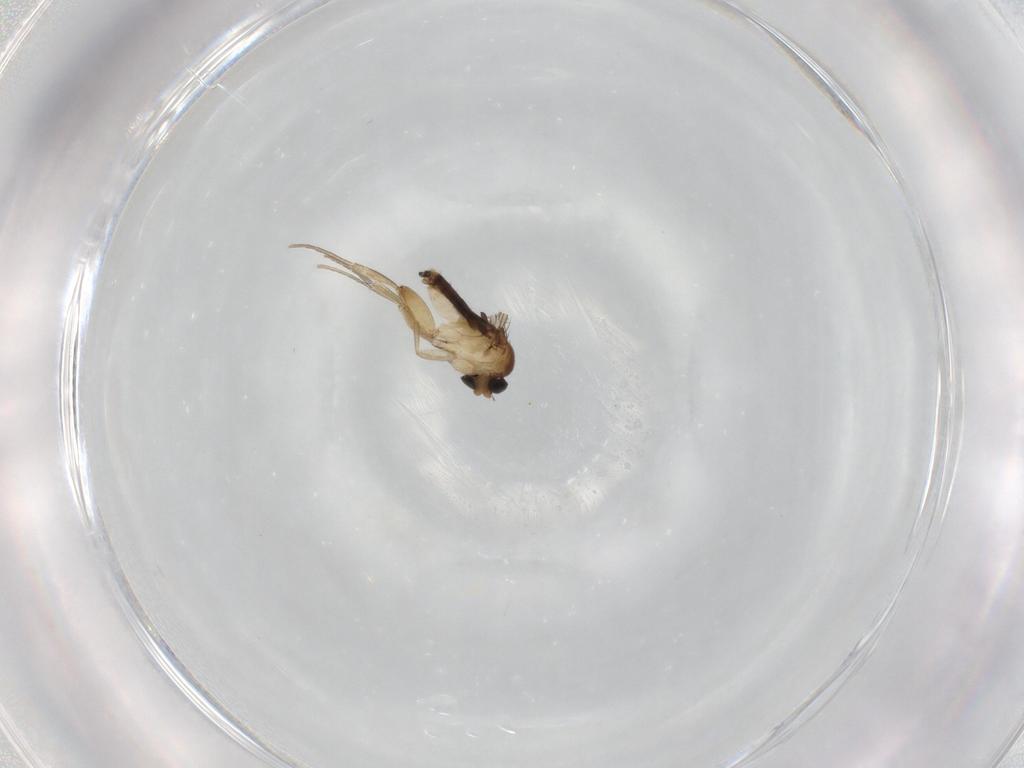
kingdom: Animalia
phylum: Arthropoda
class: Insecta
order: Diptera
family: Phoridae
